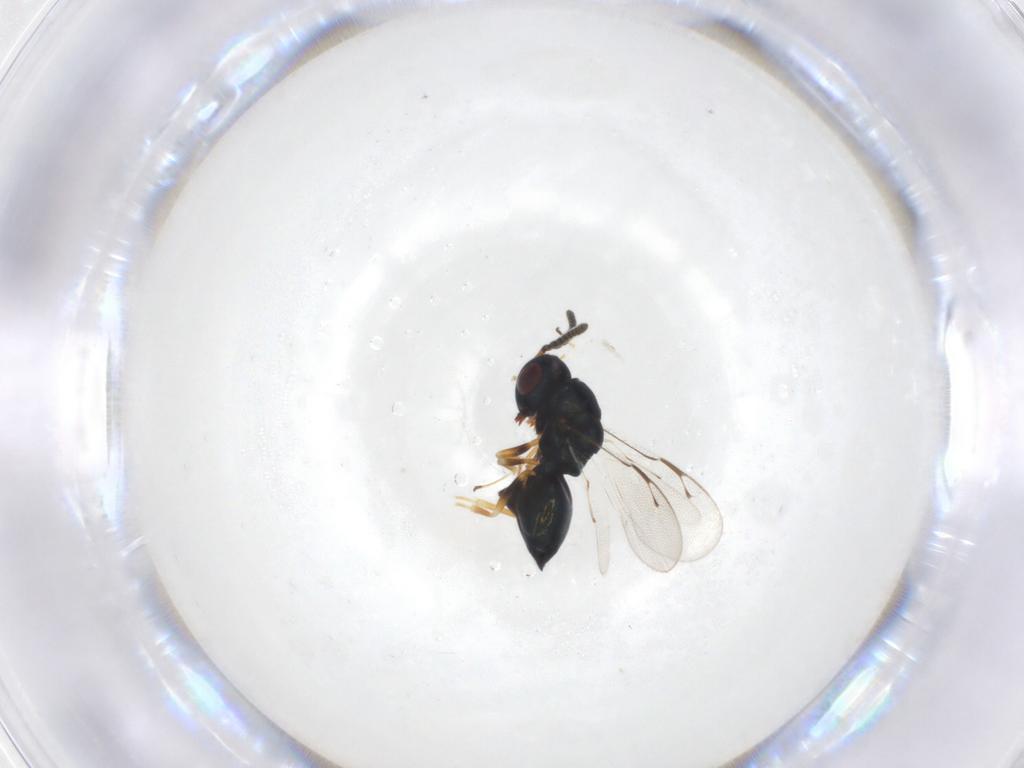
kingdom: Animalia
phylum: Arthropoda
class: Insecta
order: Hymenoptera
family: Pteromalidae
